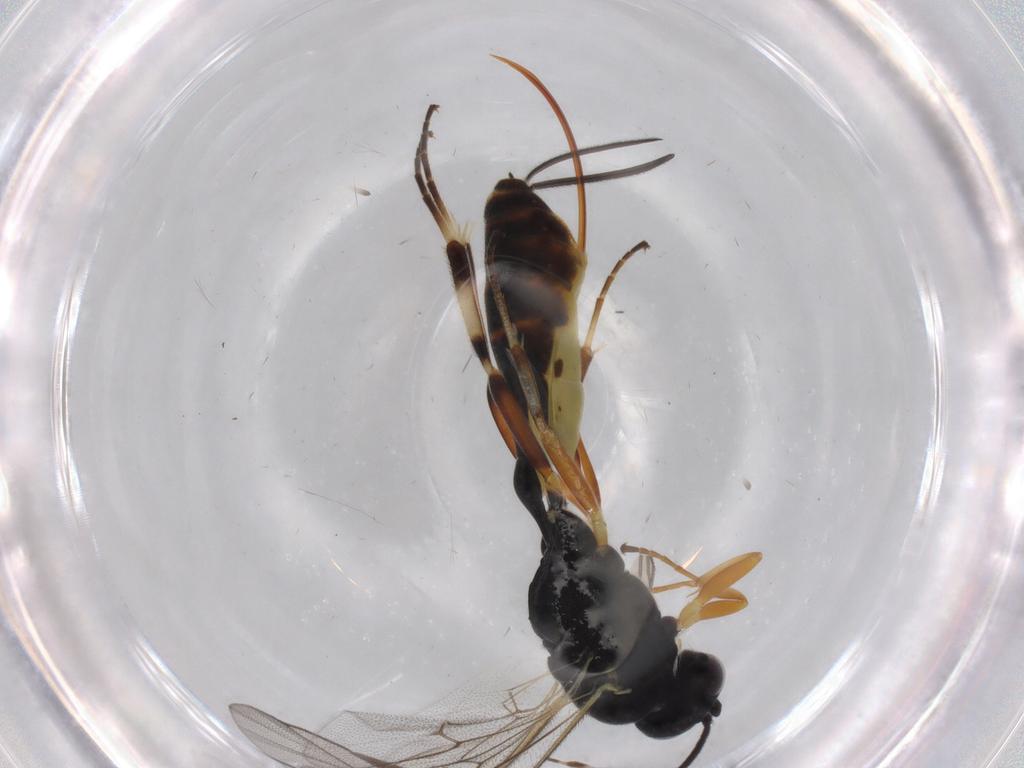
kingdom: Animalia
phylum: Arthropoda
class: Insecta
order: Hymenoptera
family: Ichneumonidae
